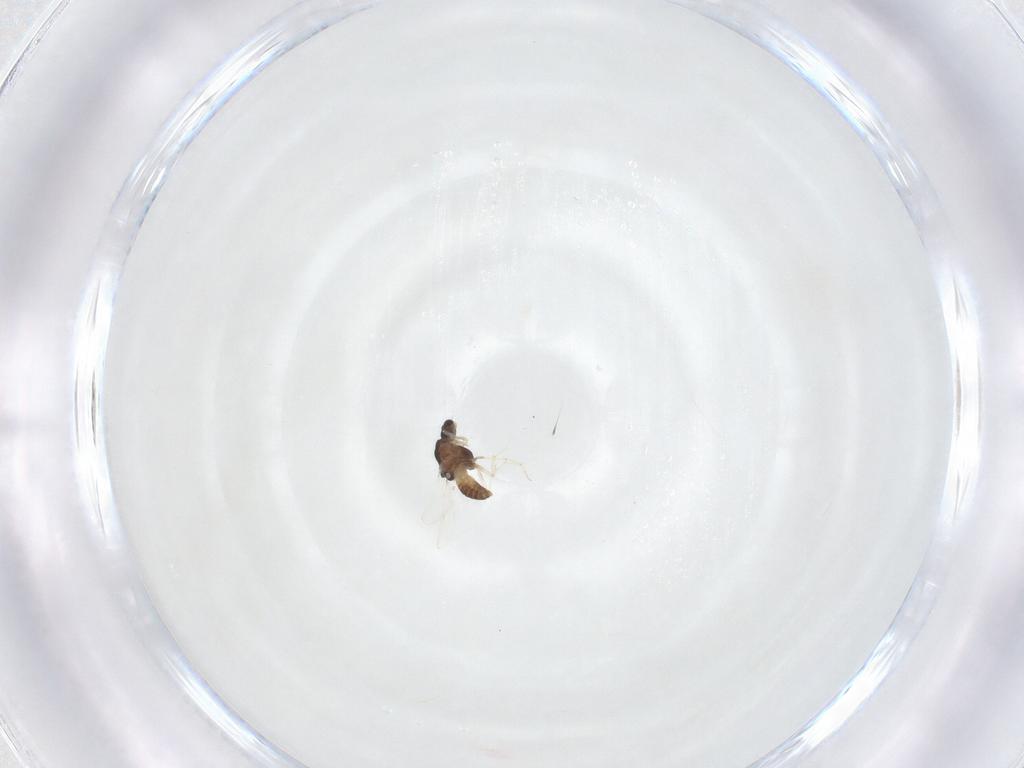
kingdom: Animalia
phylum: Arthropoda
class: Insecta
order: Diptera
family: Chironomidae
